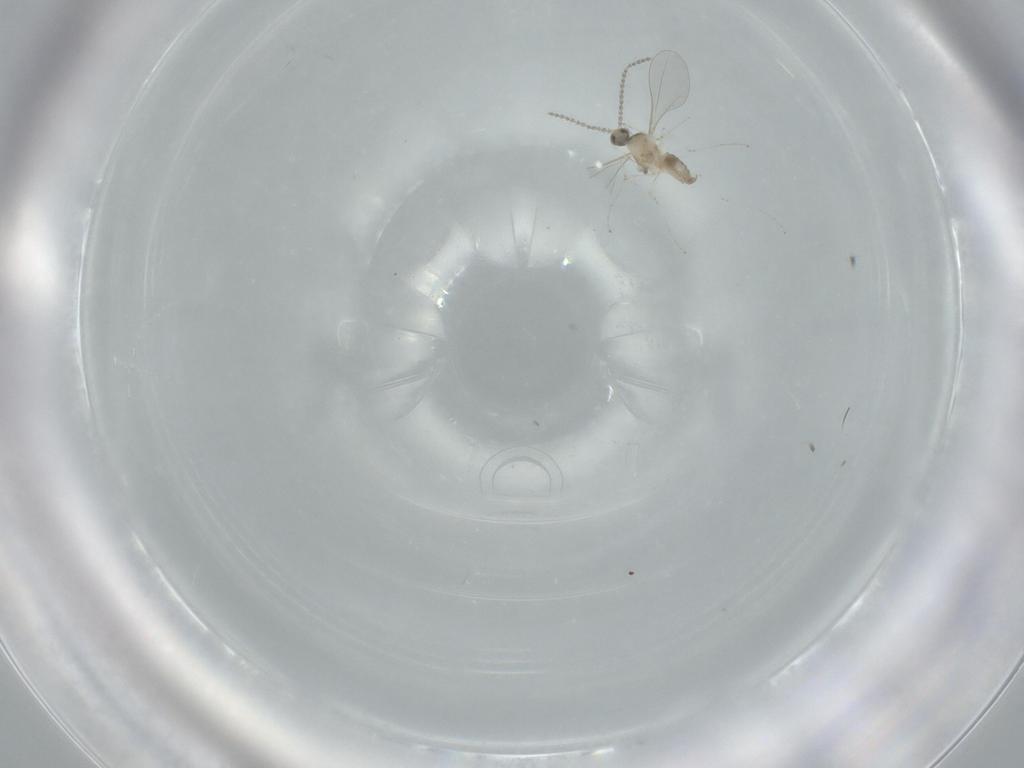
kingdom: Animalia
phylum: Arthropoda
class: Insecta
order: Diptera
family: Cecidomyiidae
